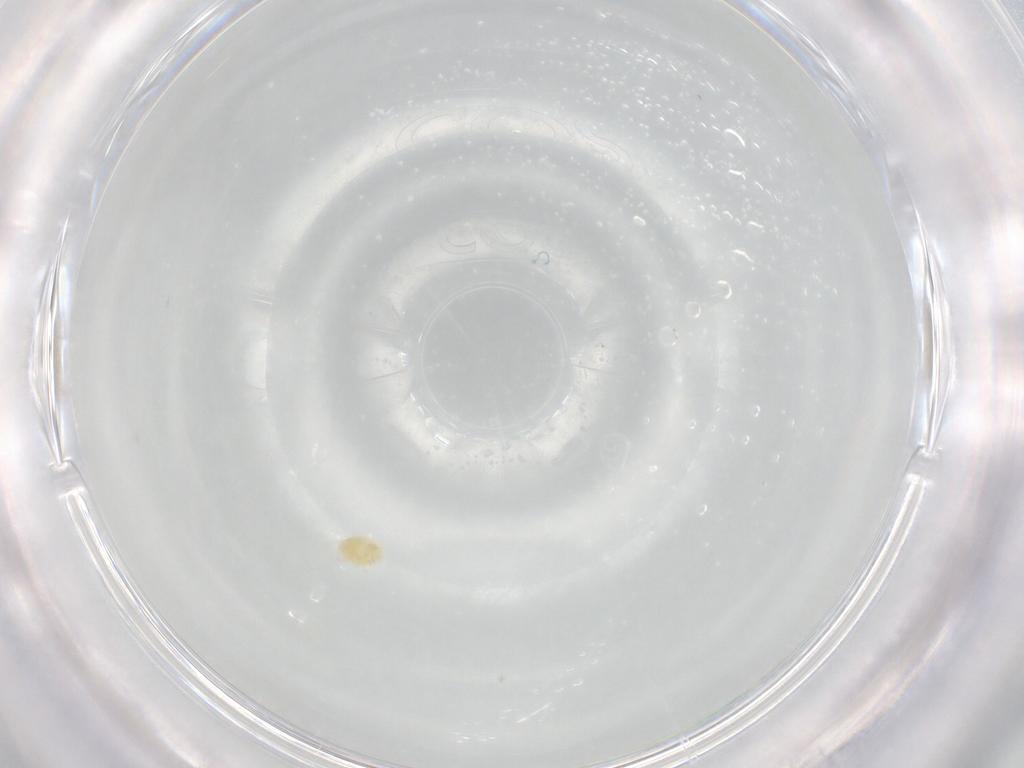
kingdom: Animalia
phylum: Arthropoda
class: Arachnida
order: Trombidiformes
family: Tetranychidae
